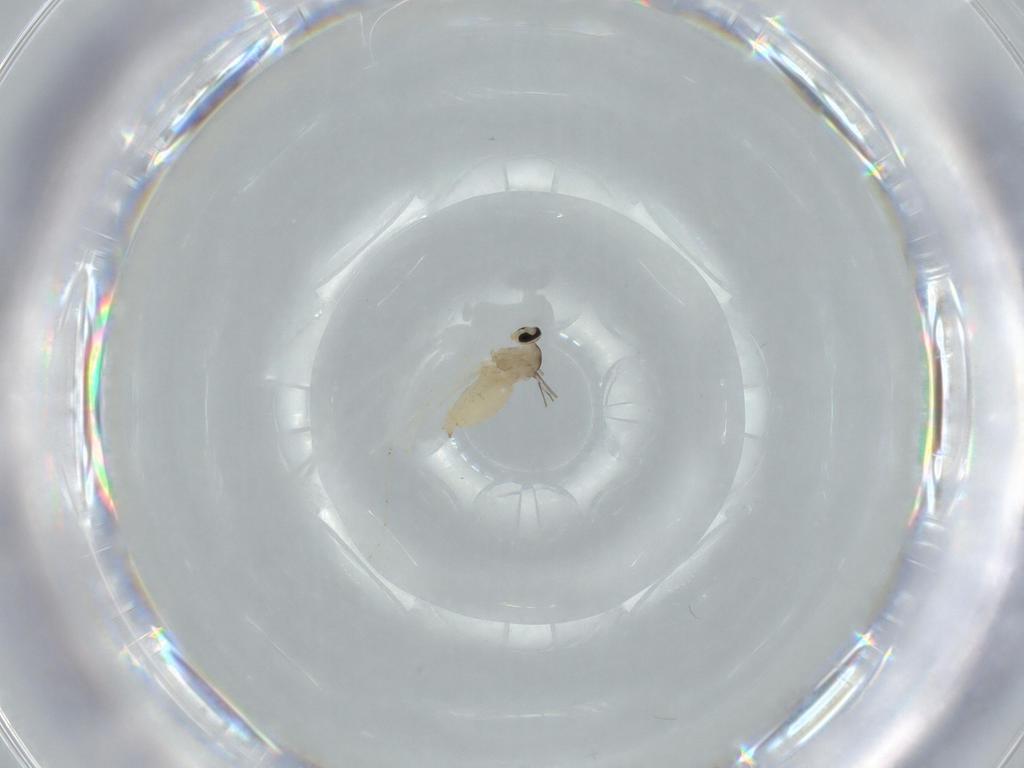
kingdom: Animalia
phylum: Arthropoda
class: Insecta
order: Diptera
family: Cecidomyiidae
